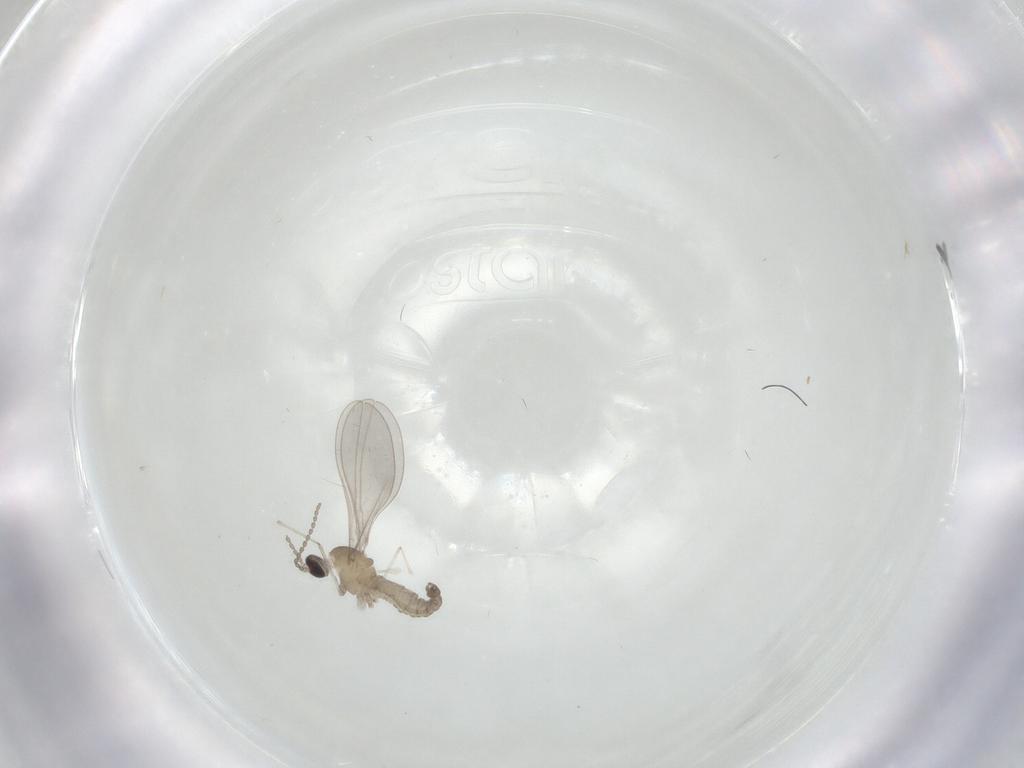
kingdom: Animalia
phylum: Arthropoda
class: Insecta
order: Diptera
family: Cecidomyiidae
